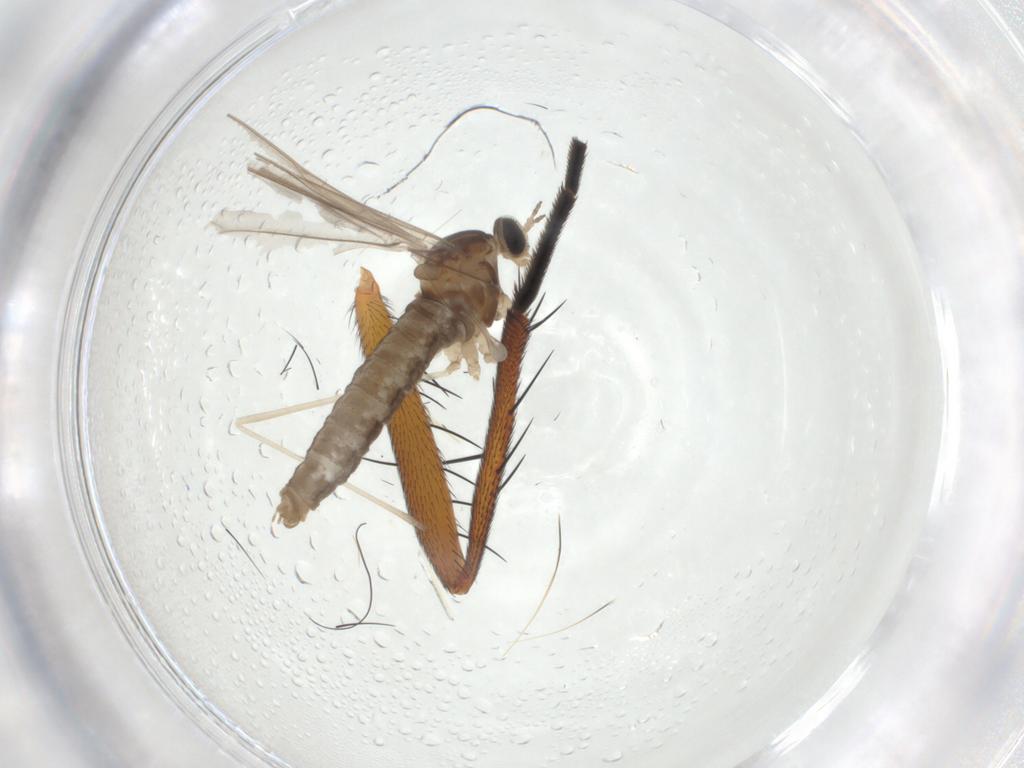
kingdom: Animalia
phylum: Arthropoda
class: Insecta
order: Diptera
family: Anthomyiidae
